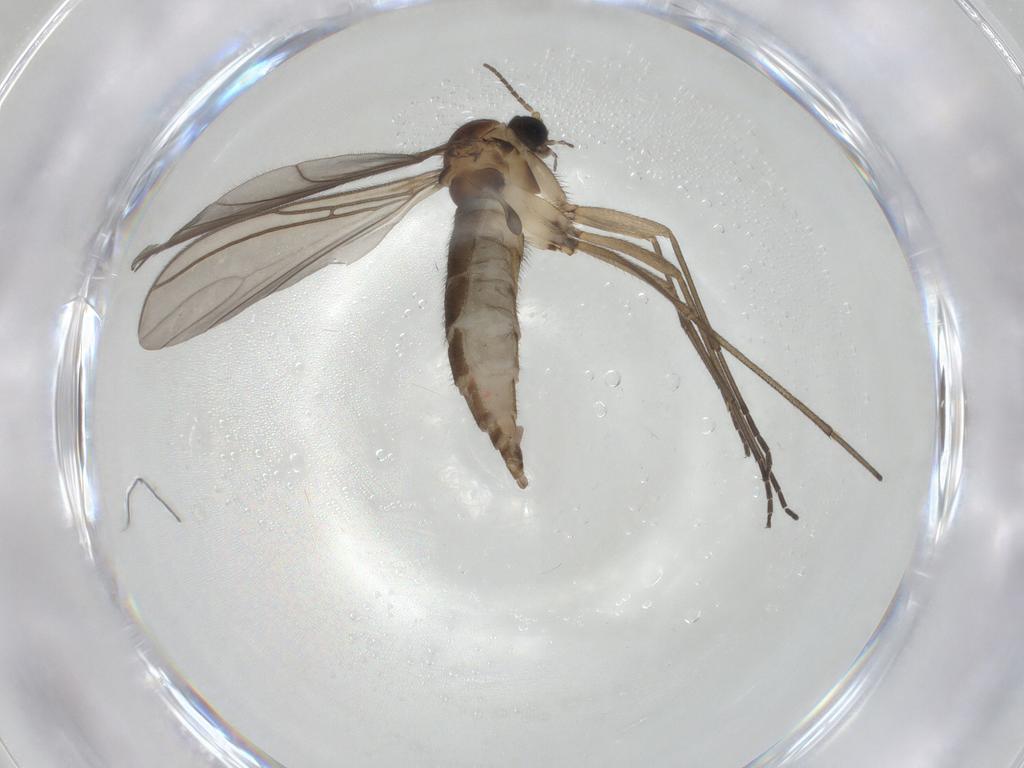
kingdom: Animalia
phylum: Arthropoda
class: Insecta
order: Diptera
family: Sciaridae
